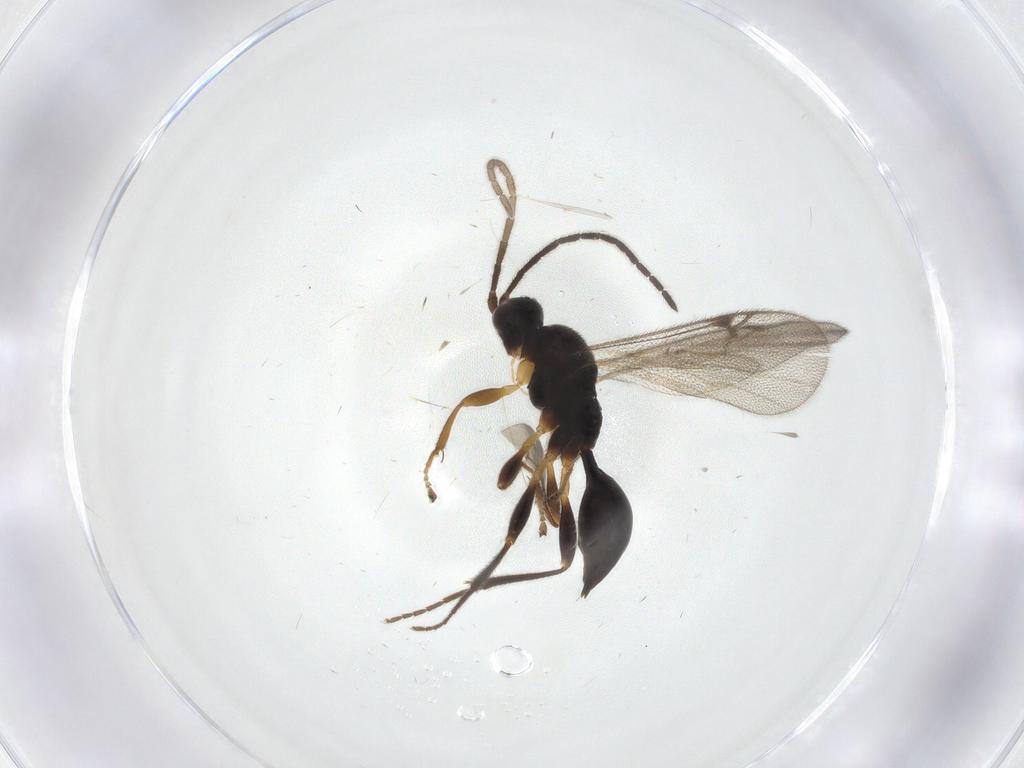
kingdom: Animalia
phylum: Arthropoda
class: Insecta
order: Hymenoptera
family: Proctotrupidae
